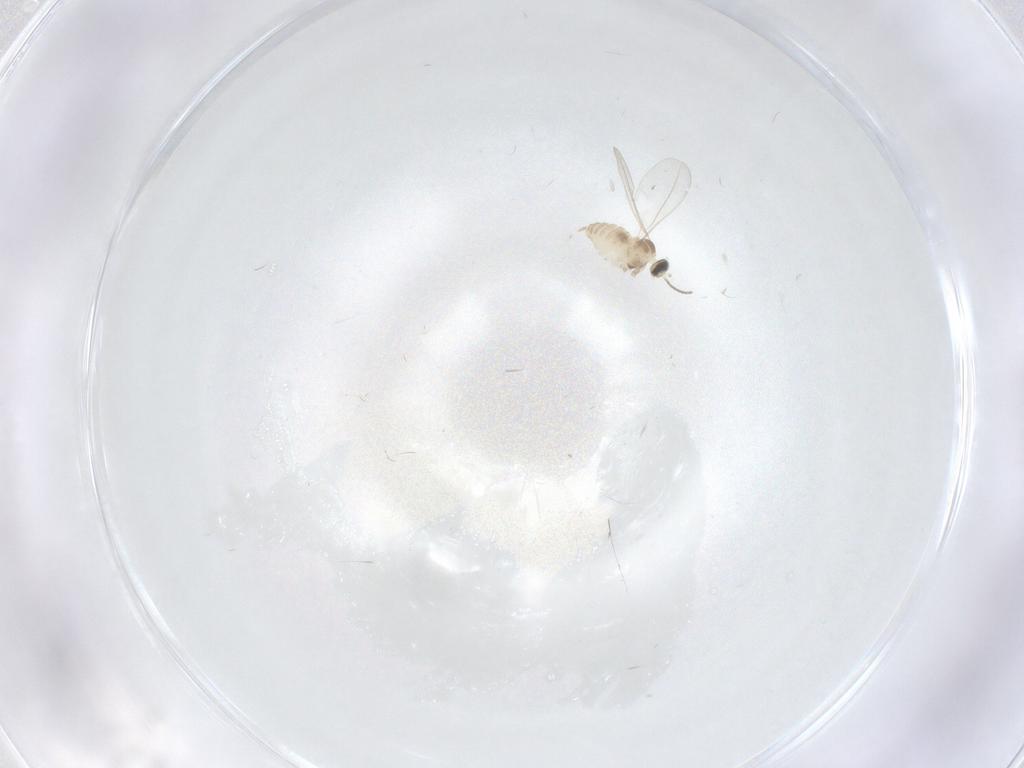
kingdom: Animalia
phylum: Arthropoda
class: Insecta
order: Diptera
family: Cecidomyiidae
